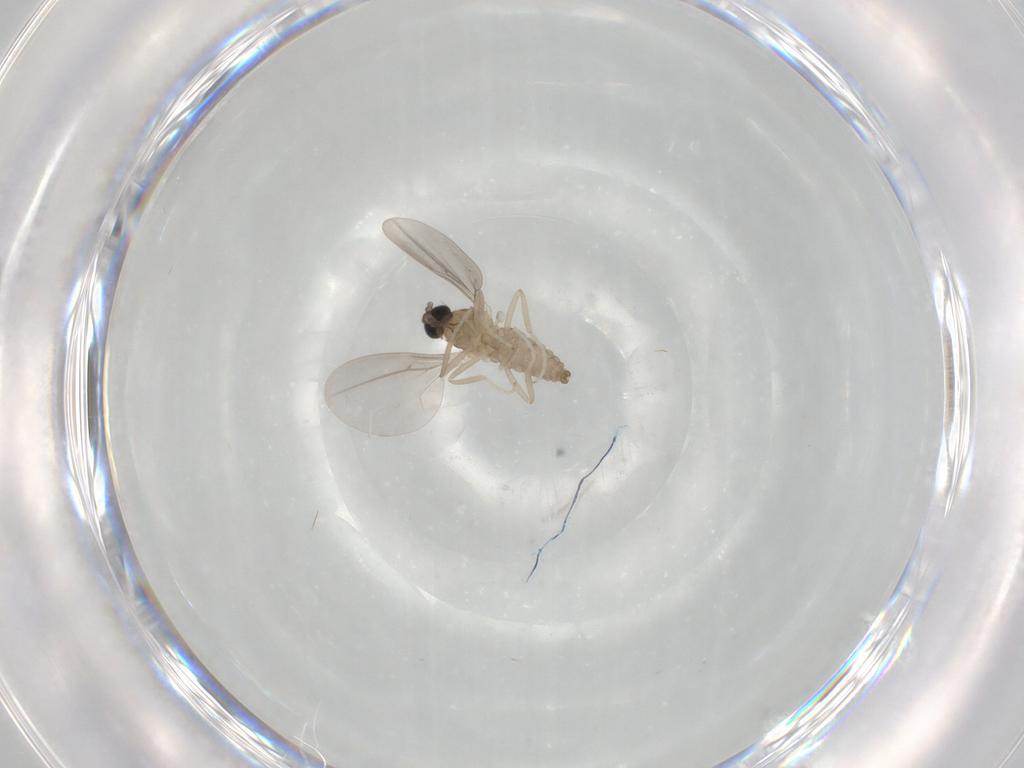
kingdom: Animalia
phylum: Arthropoda
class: Insecta
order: Diptera
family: Cecidomyiidae
